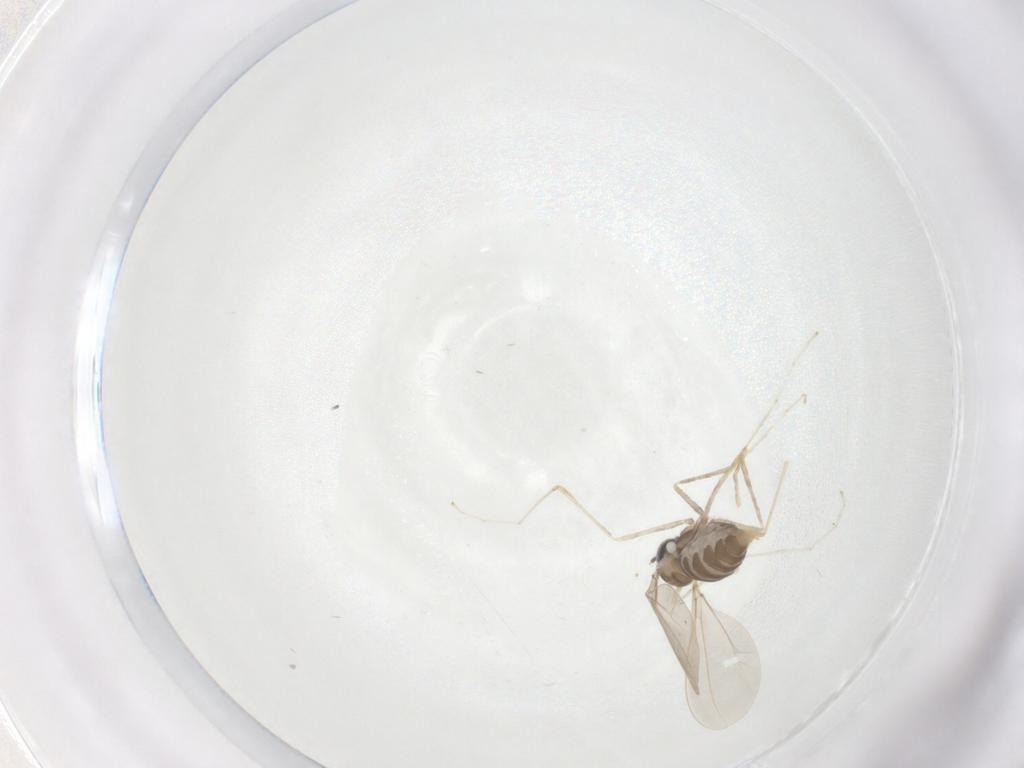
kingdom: Animalia
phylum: Arthropoda
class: Insecta
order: Diptera
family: Cecidomyiidae
